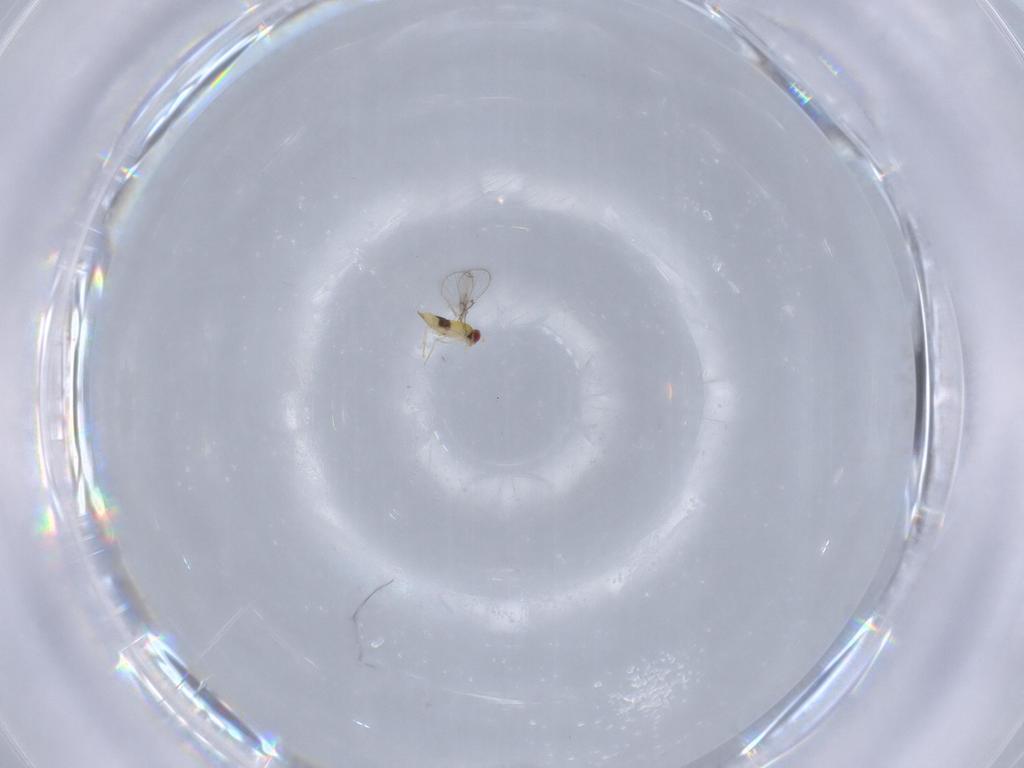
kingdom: Animalia
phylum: Arthropoda
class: Insecta
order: Hymenoptera
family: Trichogrammatidae
